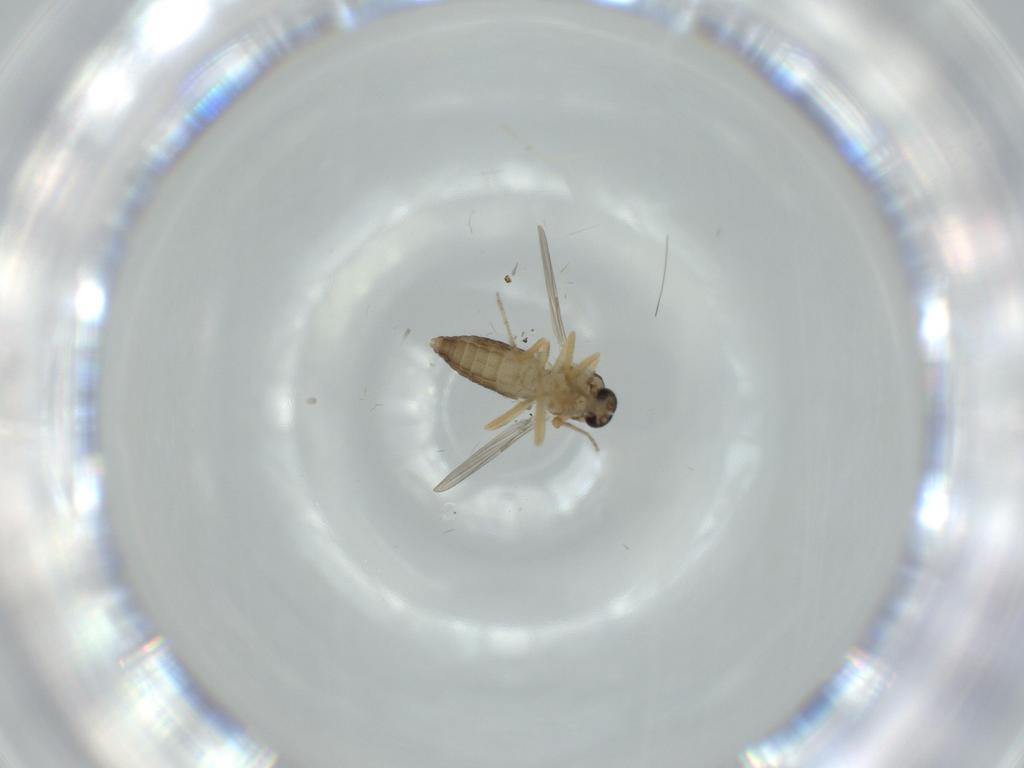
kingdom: Animalia
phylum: Arthropoda
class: Insecta
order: Diptera
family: Ceratopogonidae
